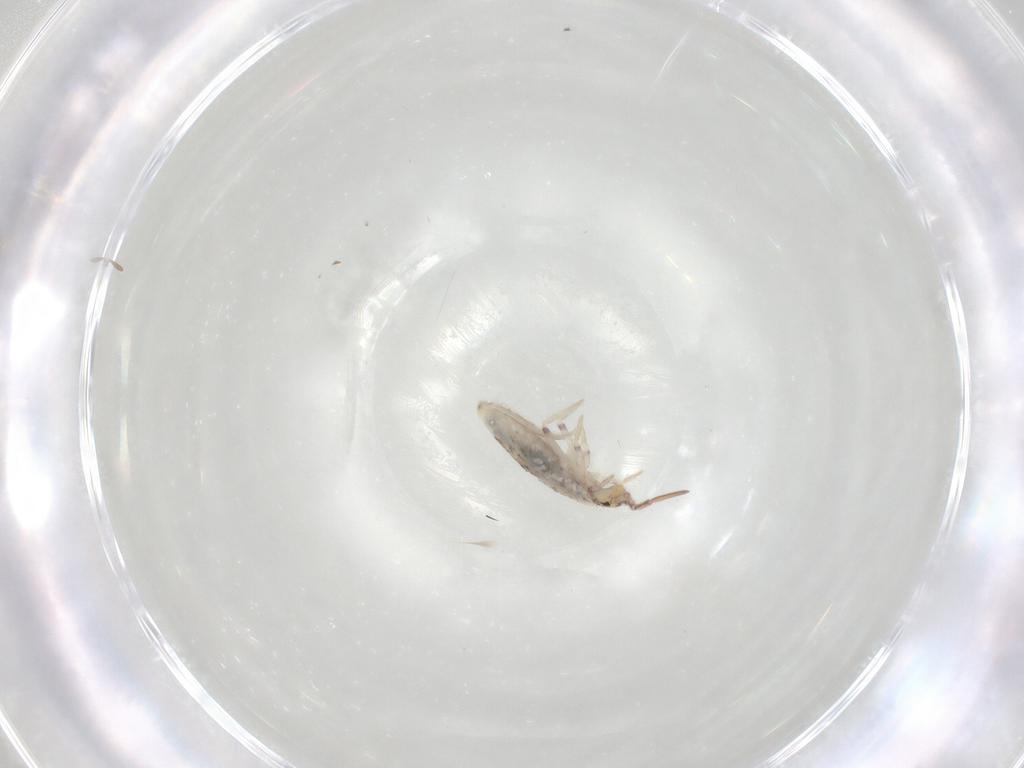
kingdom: Animalia
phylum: Arthropoda
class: Collembola
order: Entomobryomorpha
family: Entomobryidae
